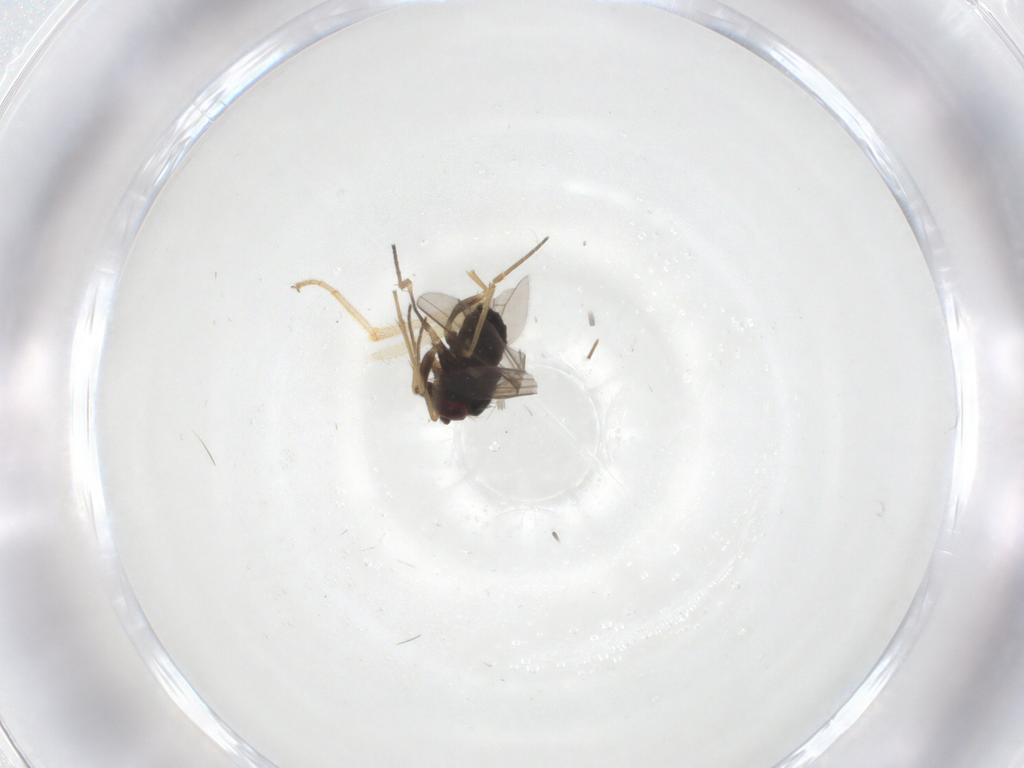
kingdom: Animalia
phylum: Arthropoda
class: Insecta
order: Diptera
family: Hybotidae
